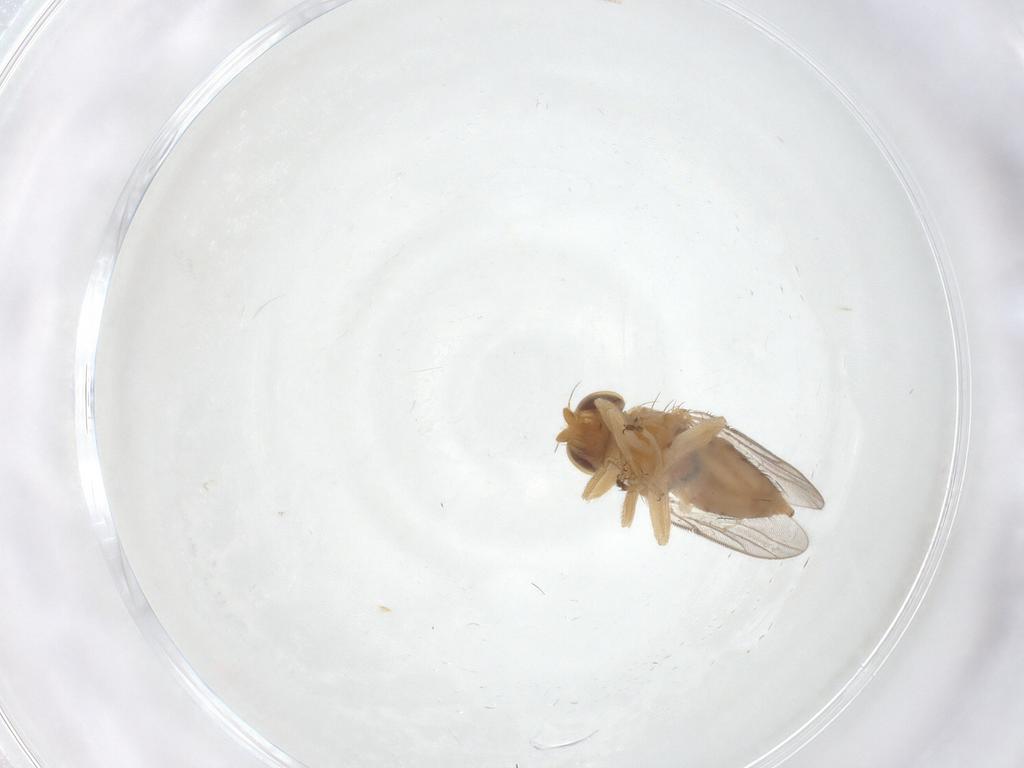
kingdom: Animalia
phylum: Arthropoda
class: Insecta
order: Diptera
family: Chloropidae
